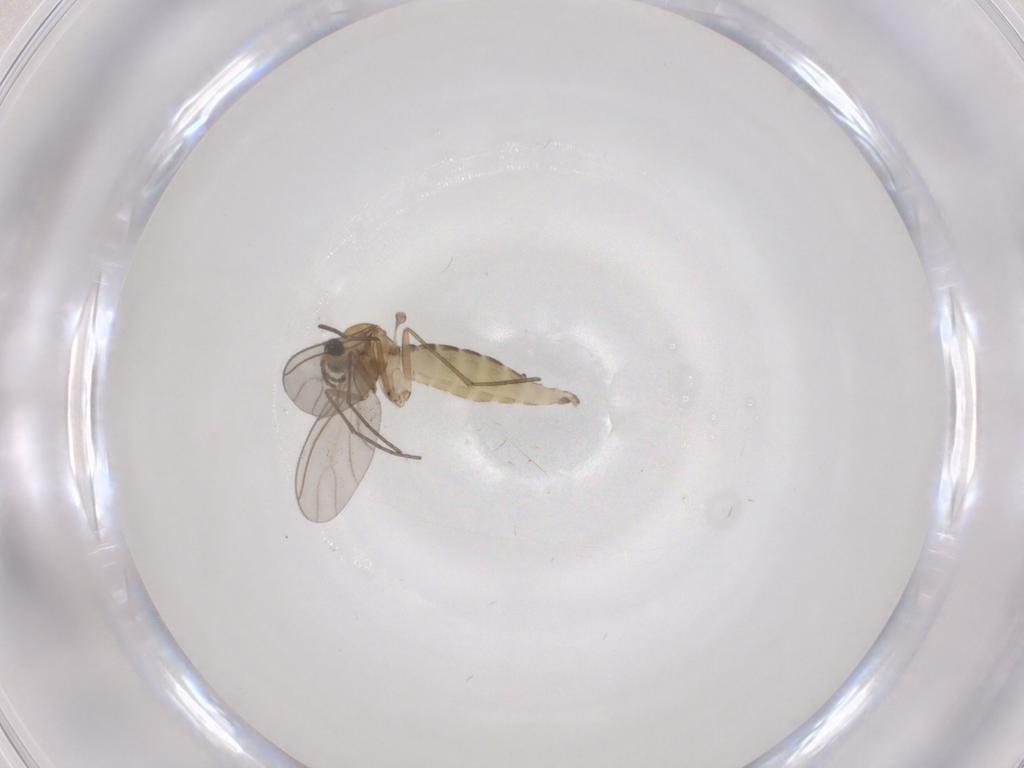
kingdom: Animalia
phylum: Arthropoda
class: Insecta
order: Diptera
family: Sciaridae
